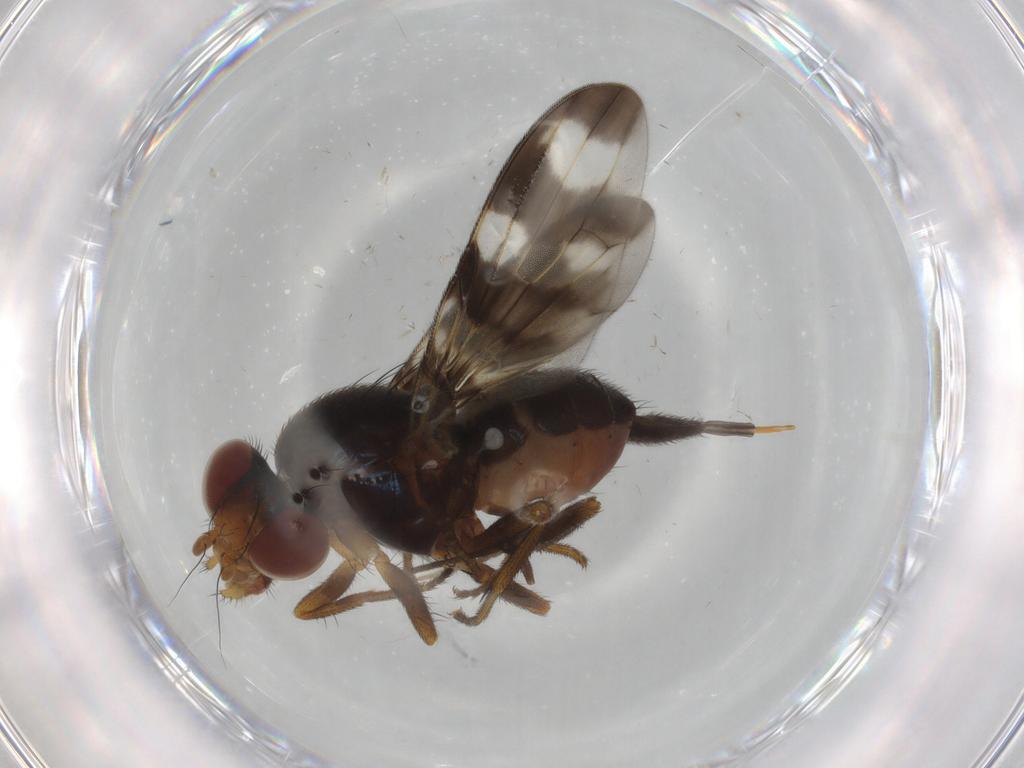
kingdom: Animalia
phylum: Arthropoda
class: Insecta
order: Diptera
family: Ulidiidae
